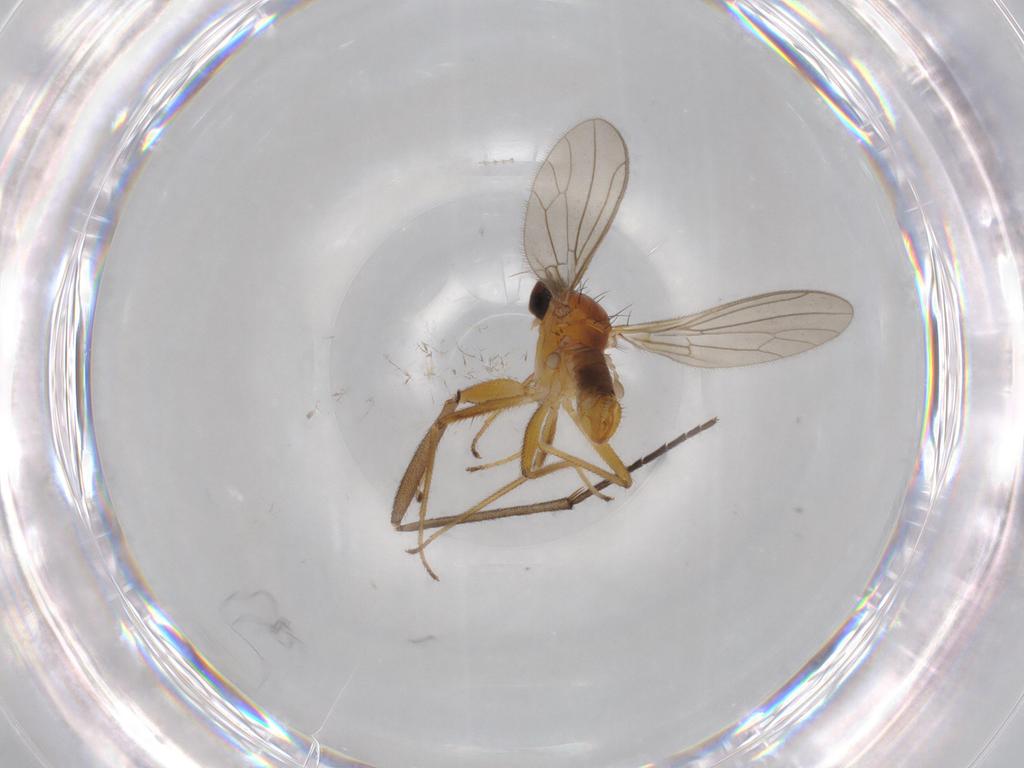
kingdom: Animalia
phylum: Arthropoda
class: Insecta
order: Diptera
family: Empididae
